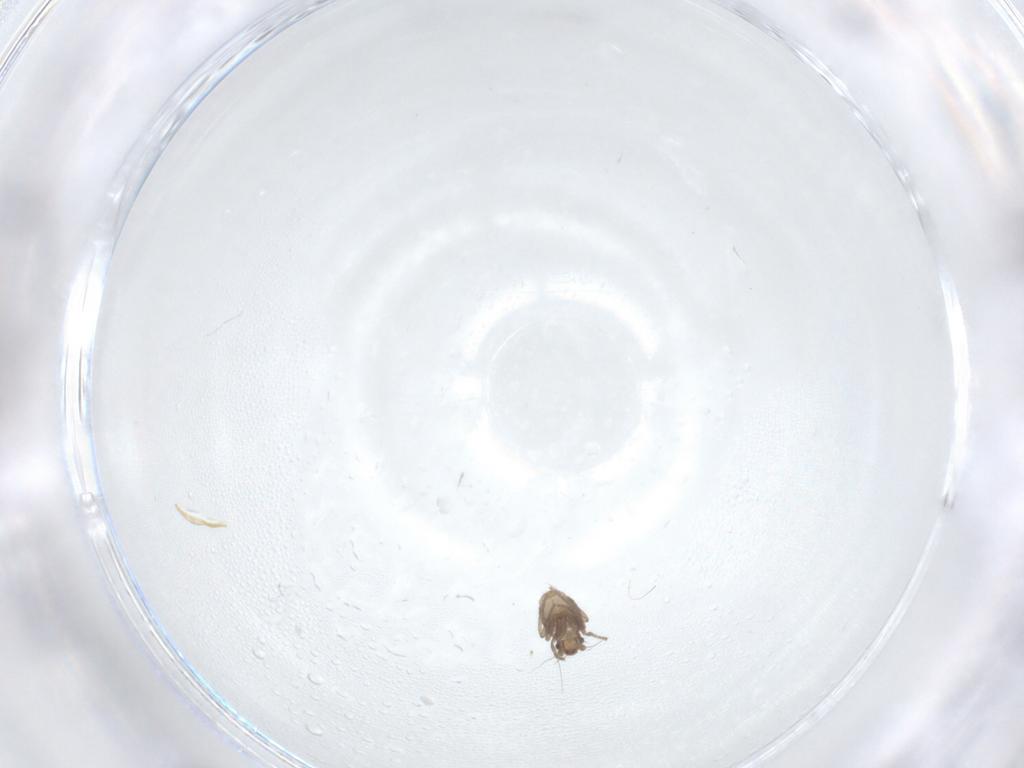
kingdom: Animalia
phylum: Arthropoda
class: Insecta
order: Diptera
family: Phoridae
